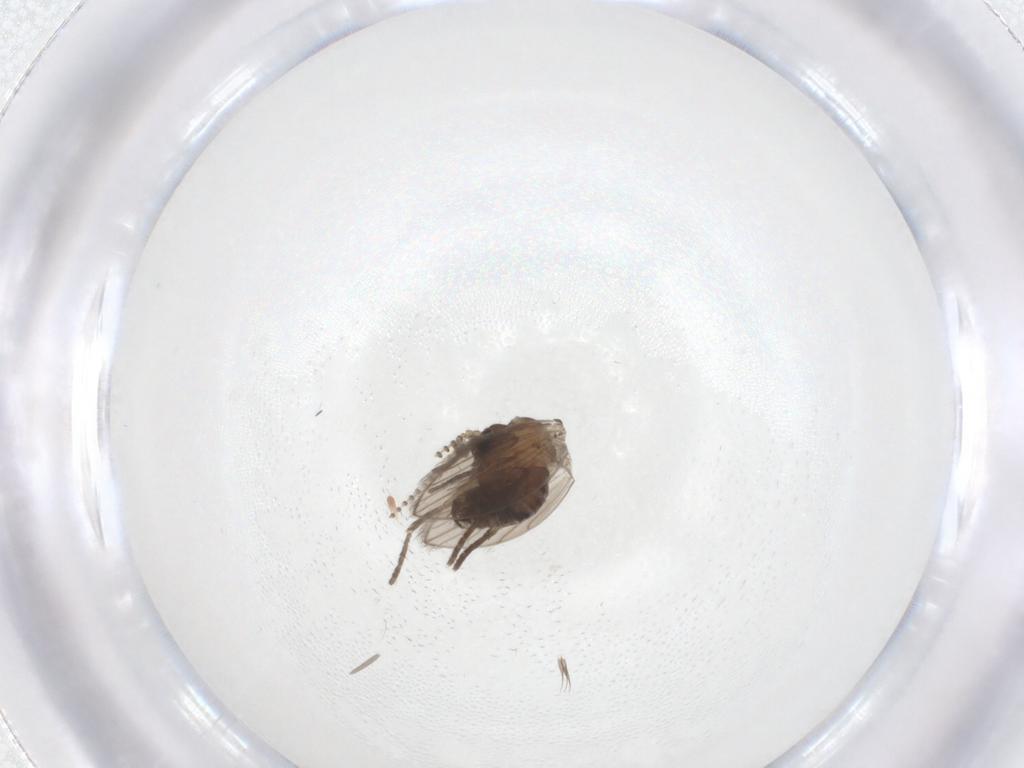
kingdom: Animalia
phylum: Arthropoda
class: Insecta
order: Diptera
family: Psychodidae
